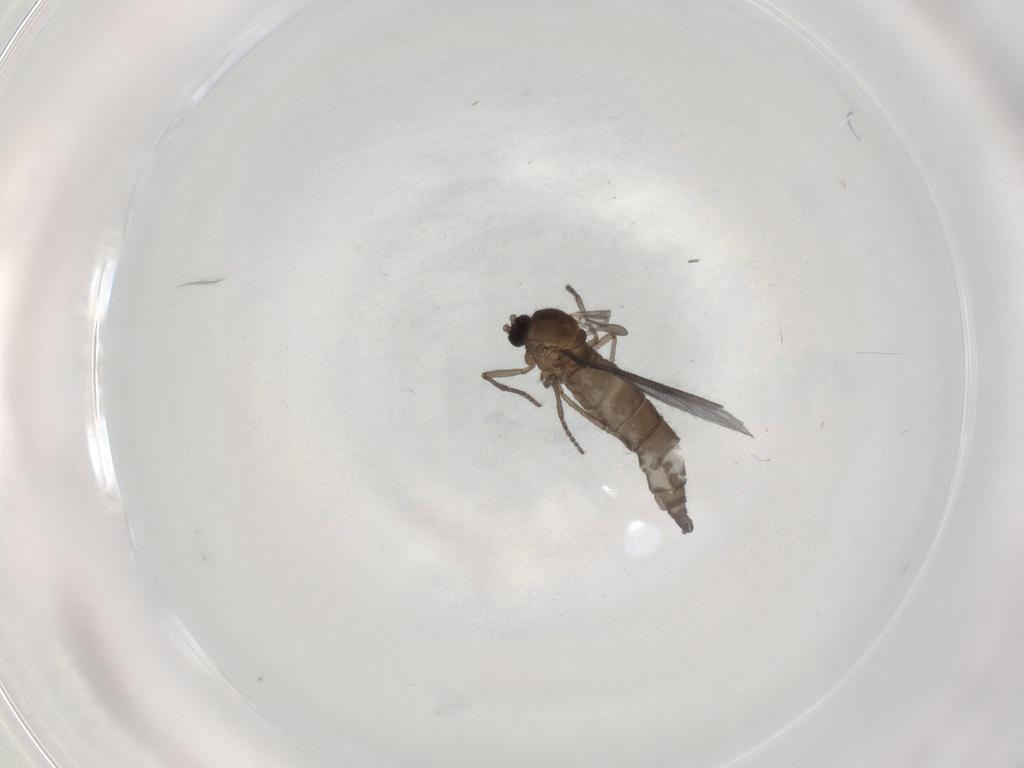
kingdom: Animalia
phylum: Arthropoda
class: Insecta
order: Diptera
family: Sciaridae
